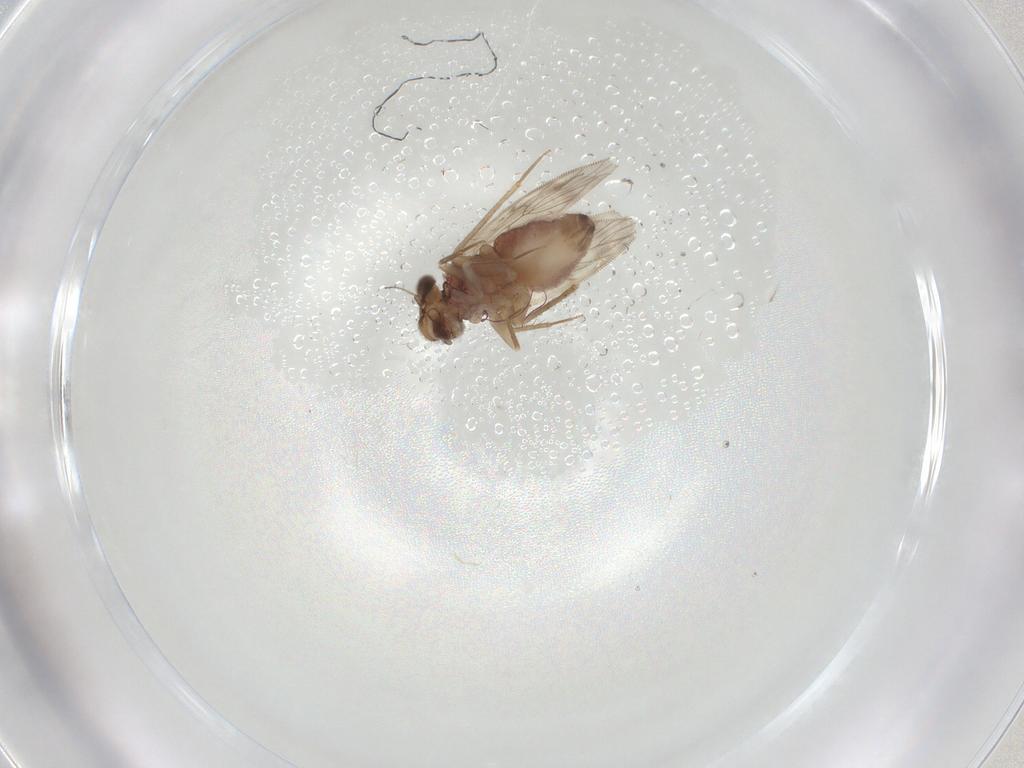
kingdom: Animalia
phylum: Arthropoda
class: Insecta
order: Psocodea
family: Lepidopsocidae
